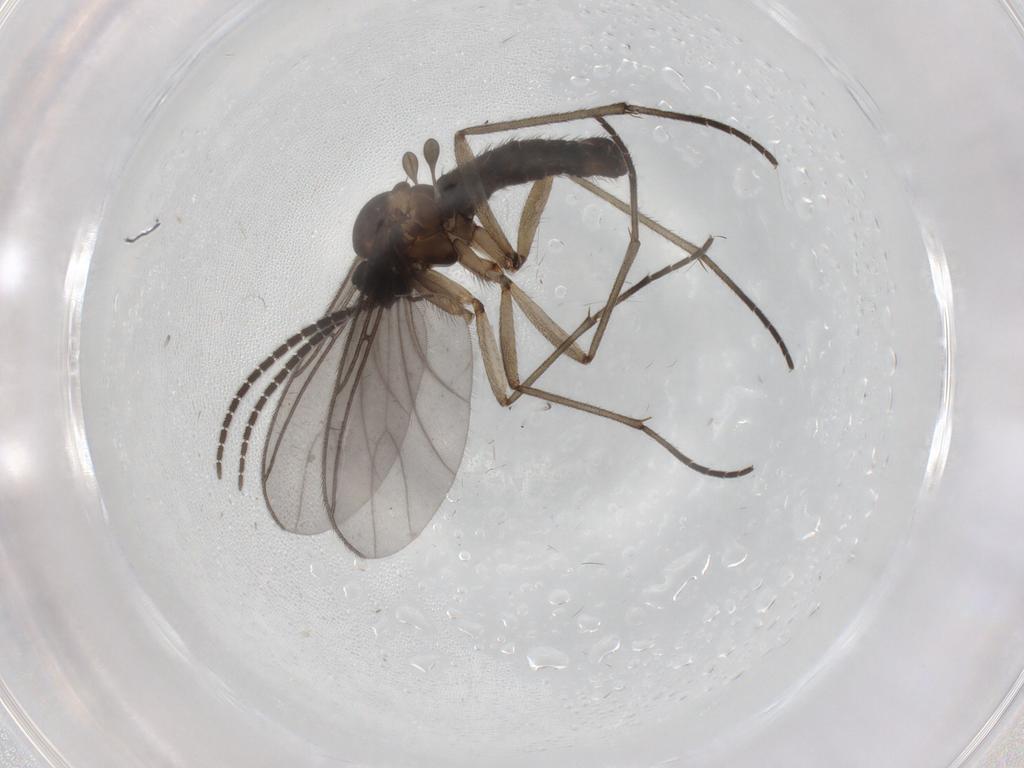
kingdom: Animalia
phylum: Arthropoda
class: Insecta
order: Diptera
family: Sciaridae
